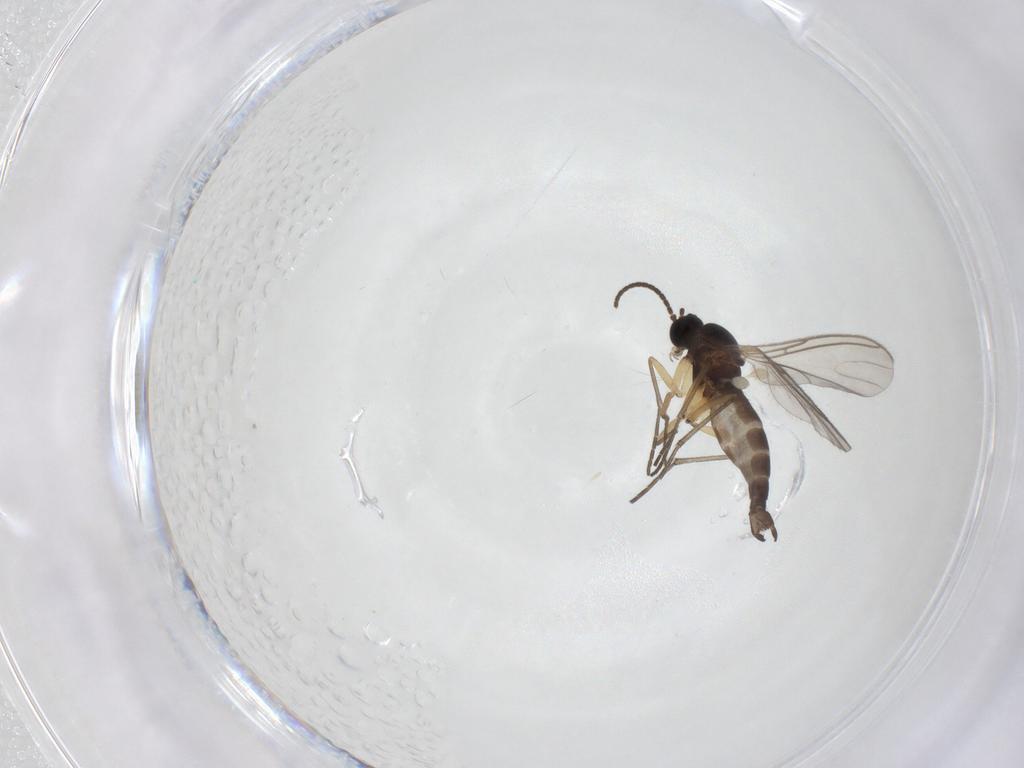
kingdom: Animalia
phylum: Arthropoda
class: Insecta
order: Diptera
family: Sciaridae
